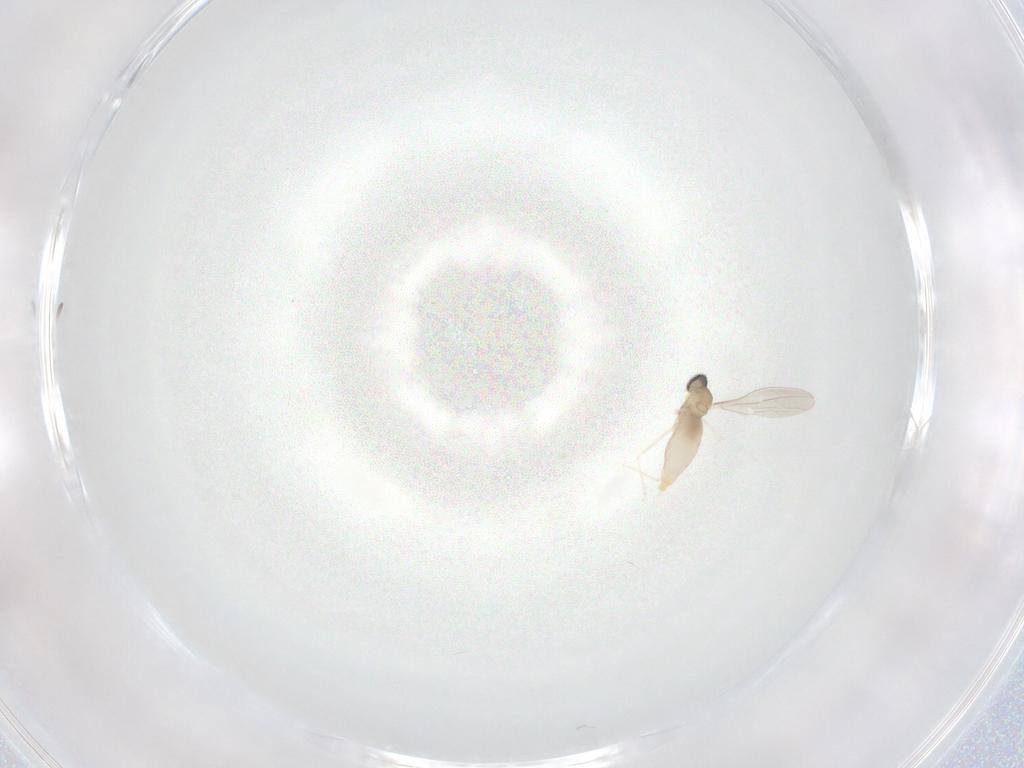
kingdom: Animalia
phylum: Arthropoda
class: Insecta
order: Diptera
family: Cecidomyiidae
